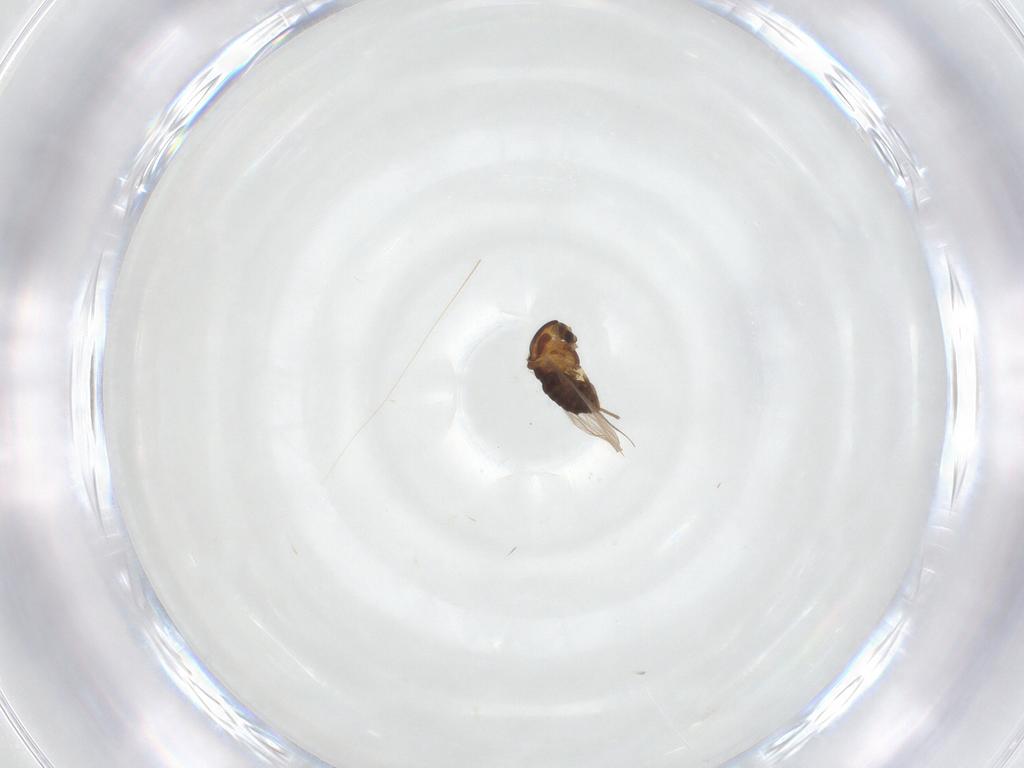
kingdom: Animalia
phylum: Arthropoda
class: Insecta
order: Diptera
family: Chironomidae
